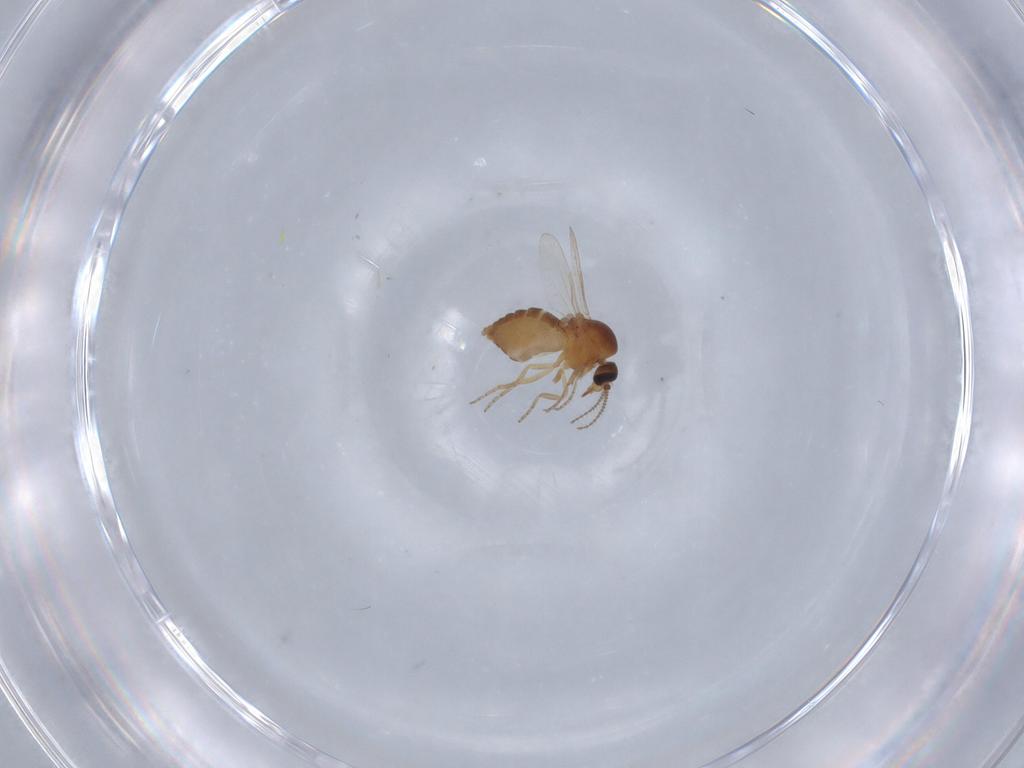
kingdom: Animalia
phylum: Arthropoda
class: Insecta
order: Diptera
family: Ceratopogonidae
